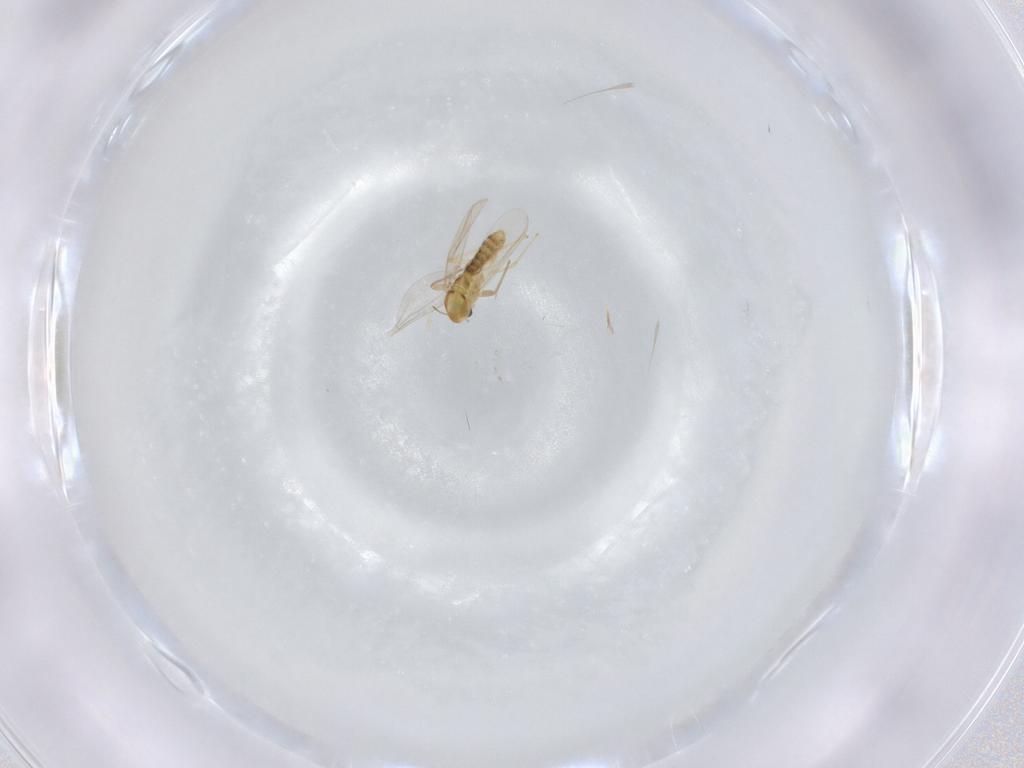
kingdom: Animalia
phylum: Arthropoda
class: Insecta
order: Diptera
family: Chironomidae
